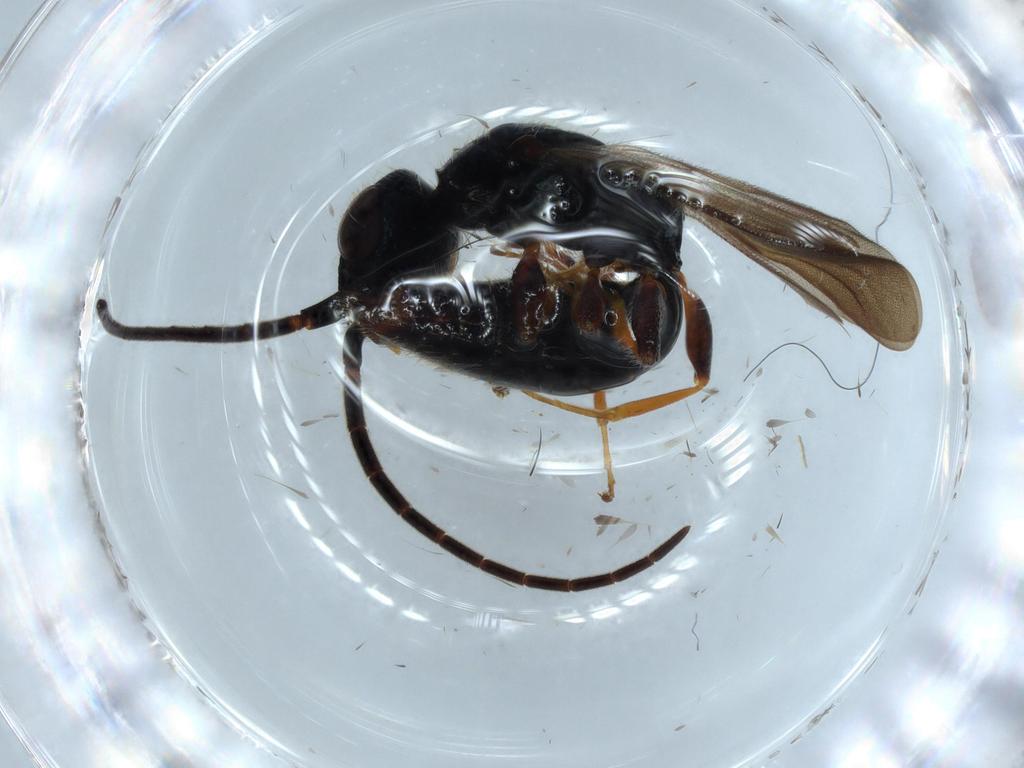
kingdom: Animalia
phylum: Arthropoda
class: Insecta
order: Hymenoptera
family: Bethylidae
